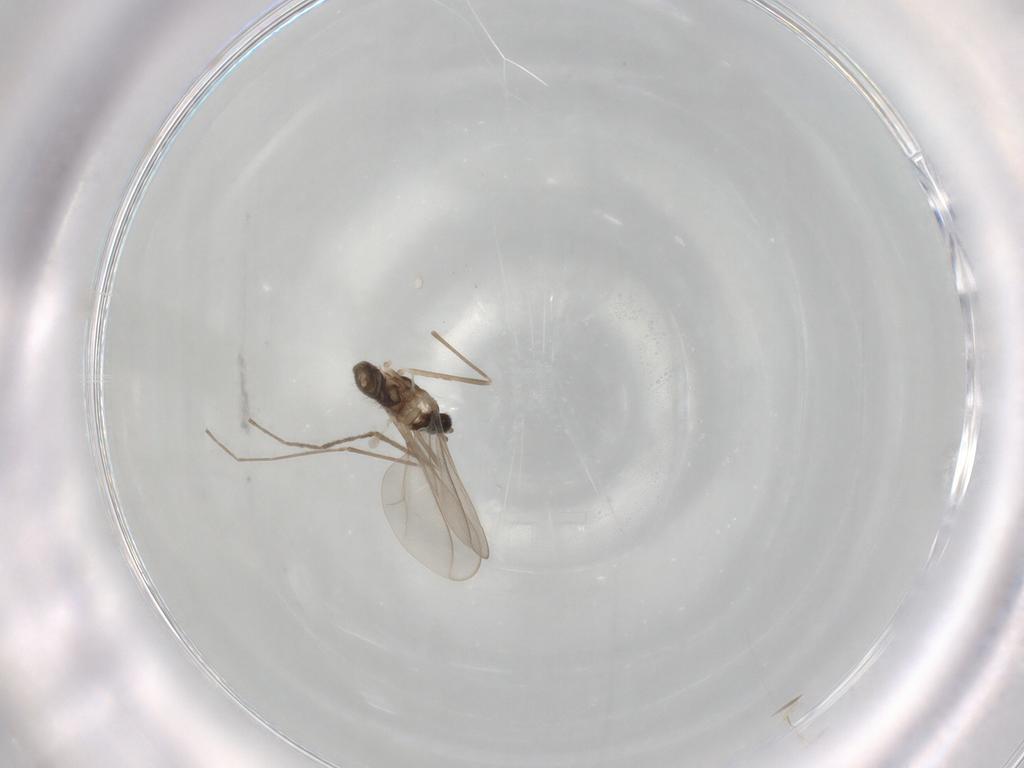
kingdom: Animalia
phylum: Arthropoda
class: Insecta
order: Diptera
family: Cecidomyiidae
